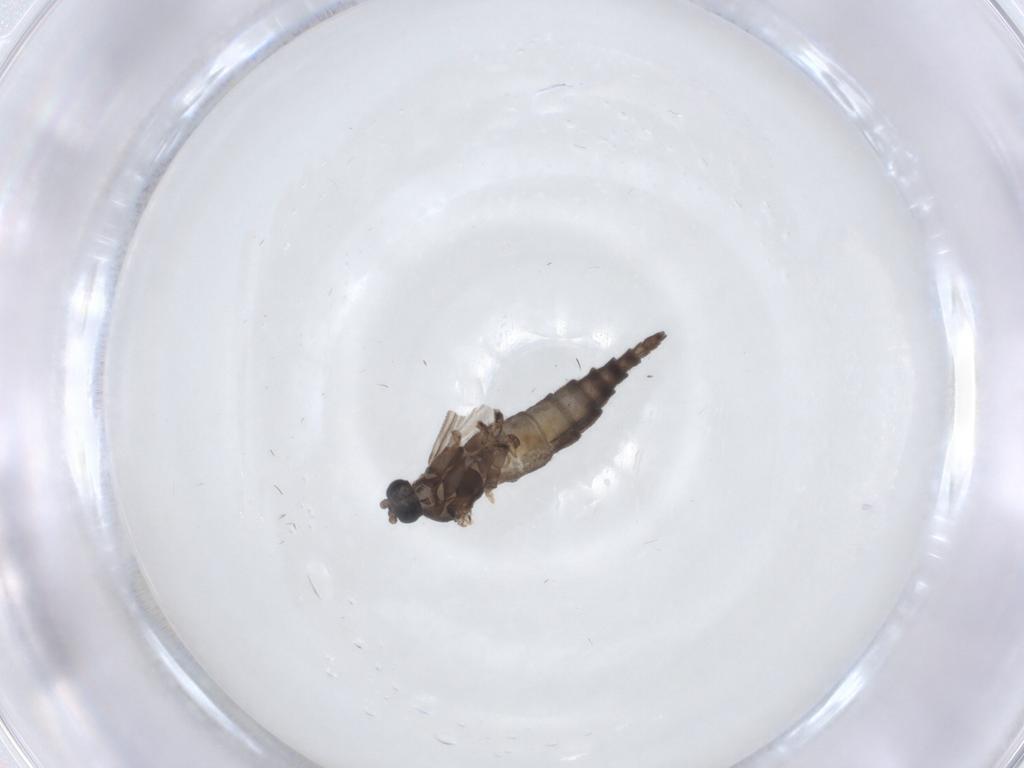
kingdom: Animalia
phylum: Arthropoda
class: Insecta
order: Diptera
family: Sciaridae
